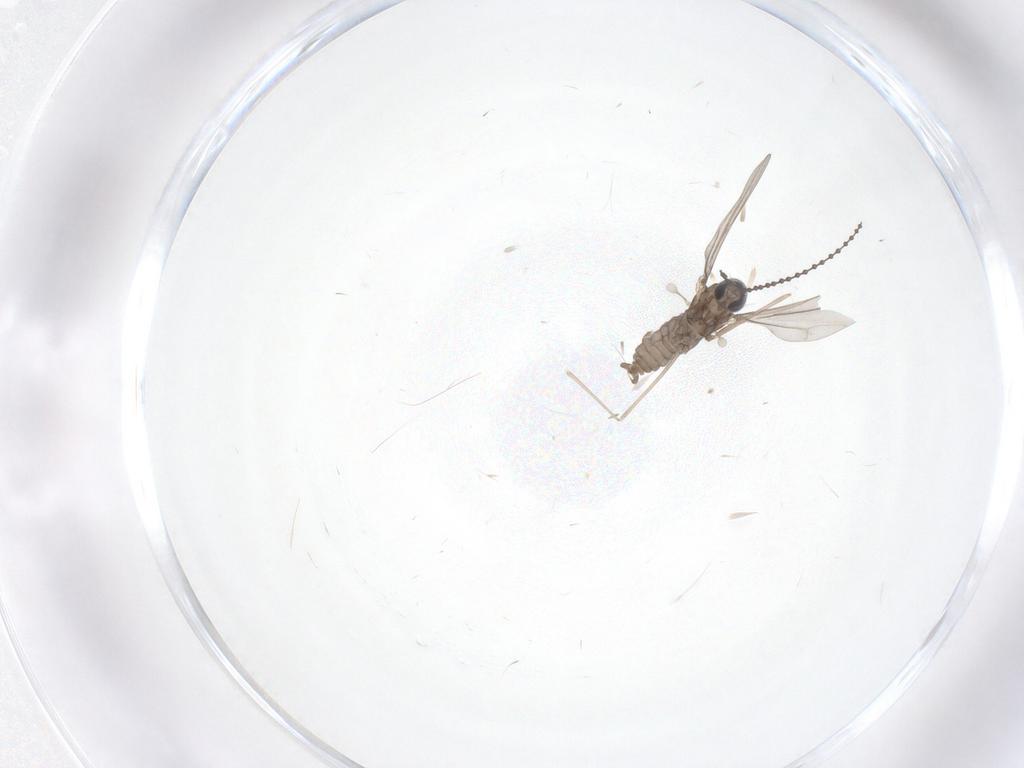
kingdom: Animalia
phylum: Arthropoda
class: Insecta
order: Diptera
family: Cecidomyiidae
